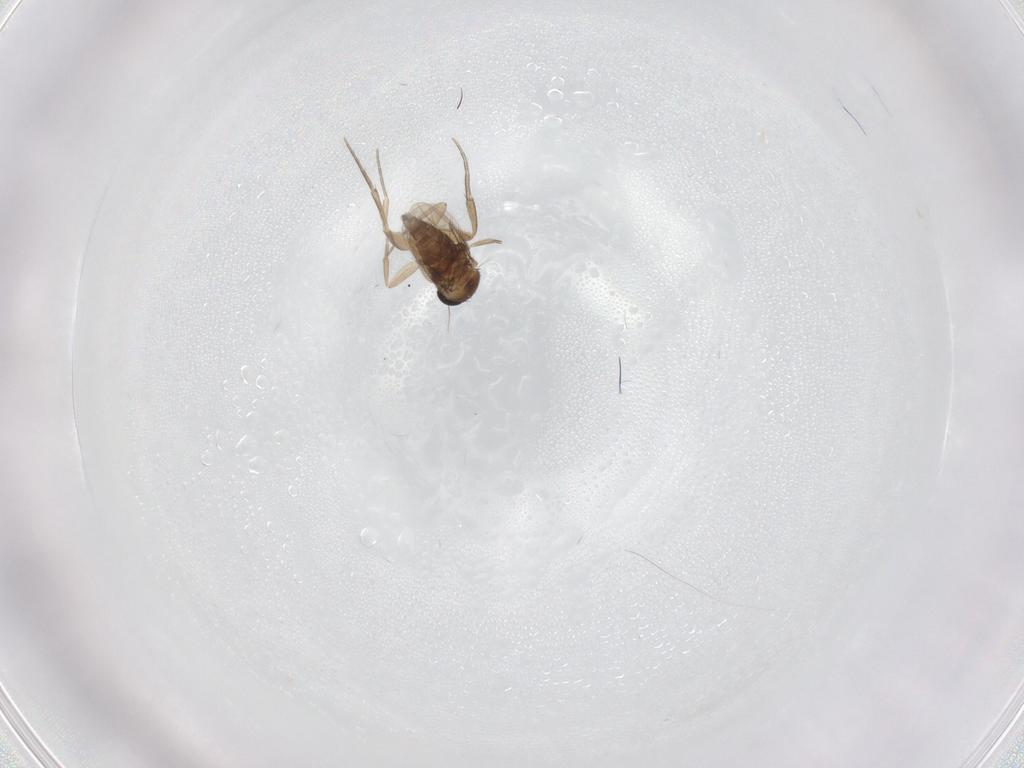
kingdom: Animalia
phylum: Arthropoda
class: Insecta
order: Diptera
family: Phoridae
